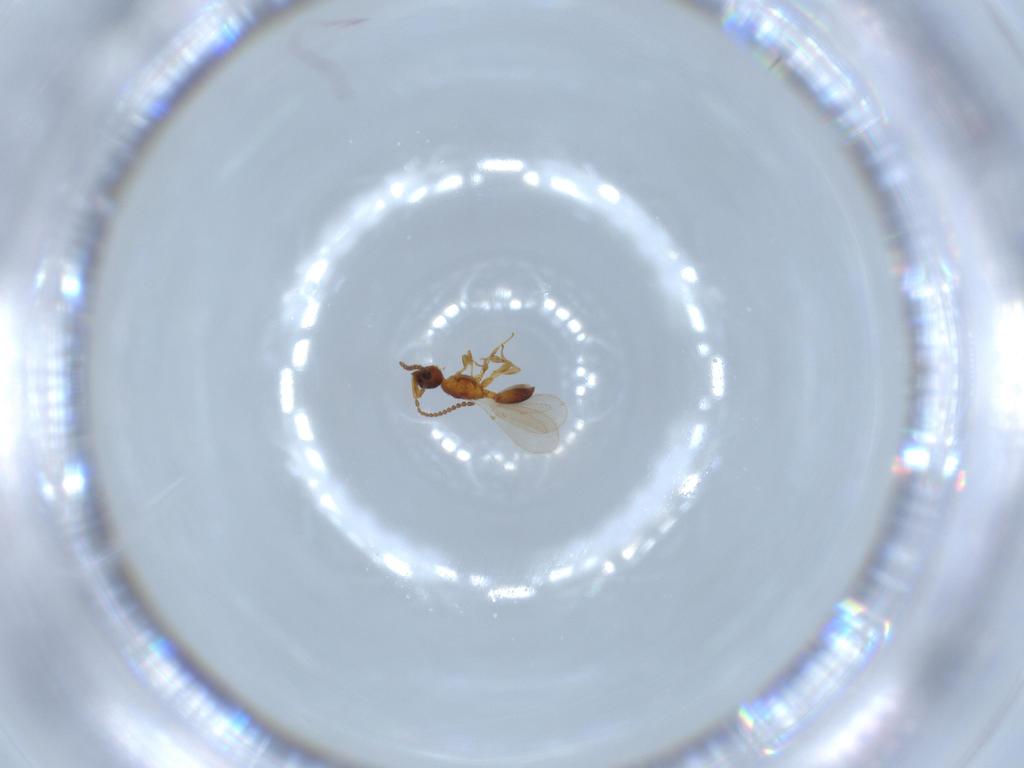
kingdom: Animalia
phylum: Arthropoda
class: Insecta
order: Hymenoptera
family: Diapriidae
